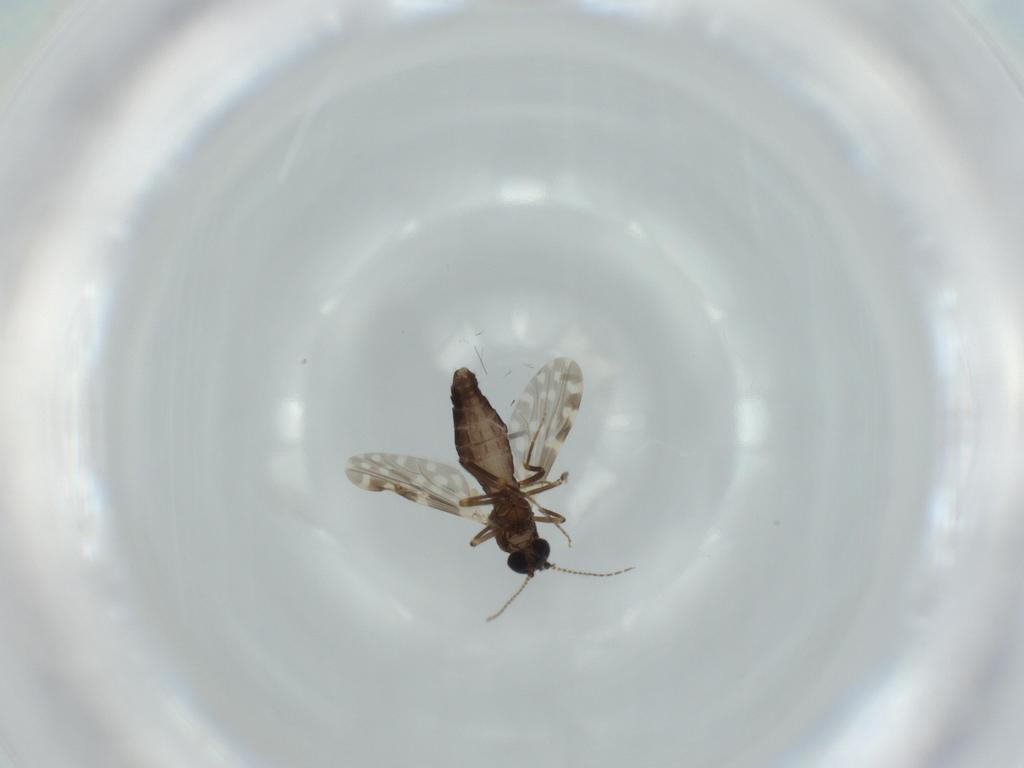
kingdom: Animalia
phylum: Arthropoda
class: Insecta
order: Diptera
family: Ceratopogonidae
